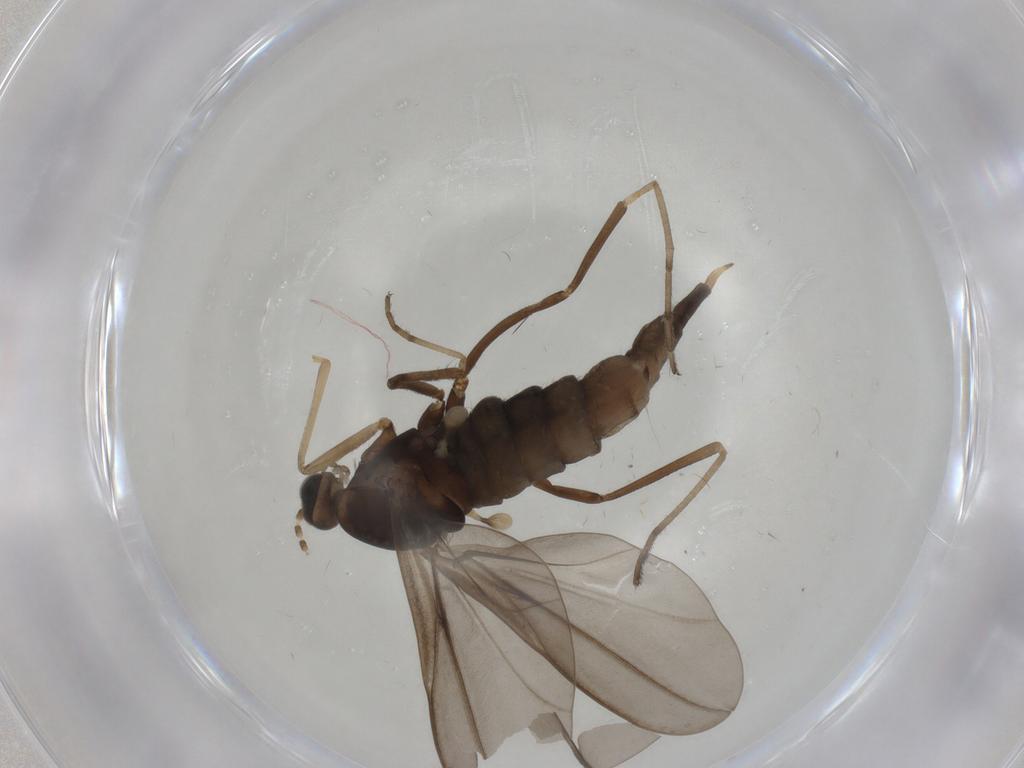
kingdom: Animalia
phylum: Arthropoda
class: Insecta
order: Diptera
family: Cecidomyiidae
